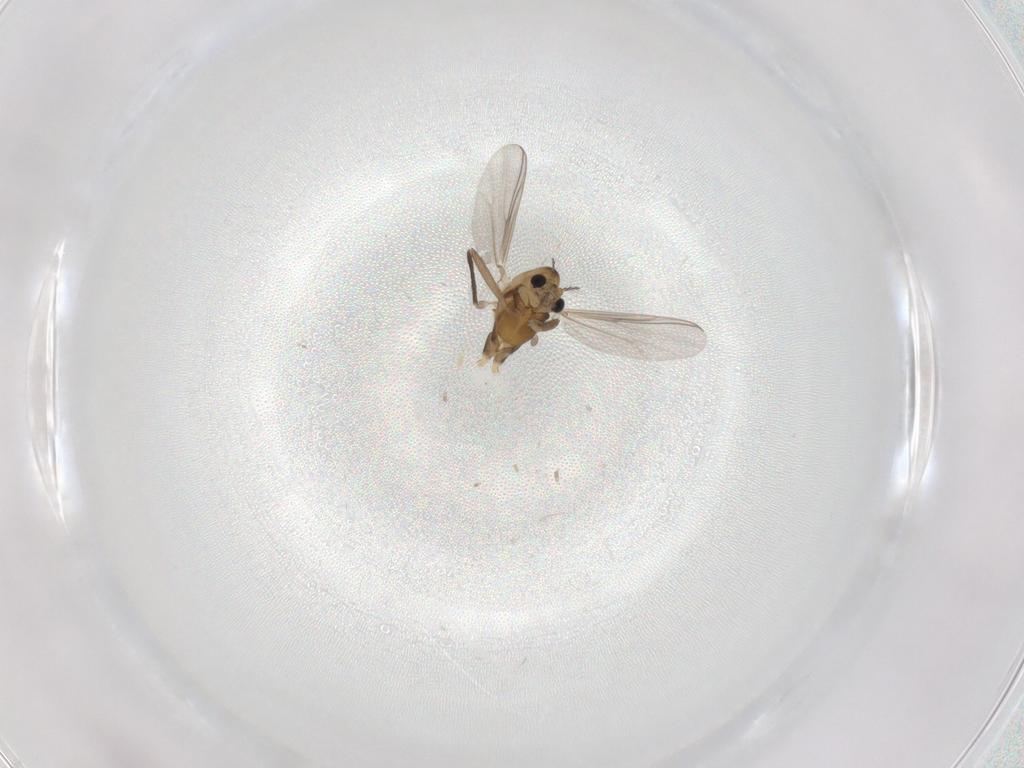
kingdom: Animalia
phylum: Arthropoda
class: Insecta
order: Diptera
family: Chironomidae
